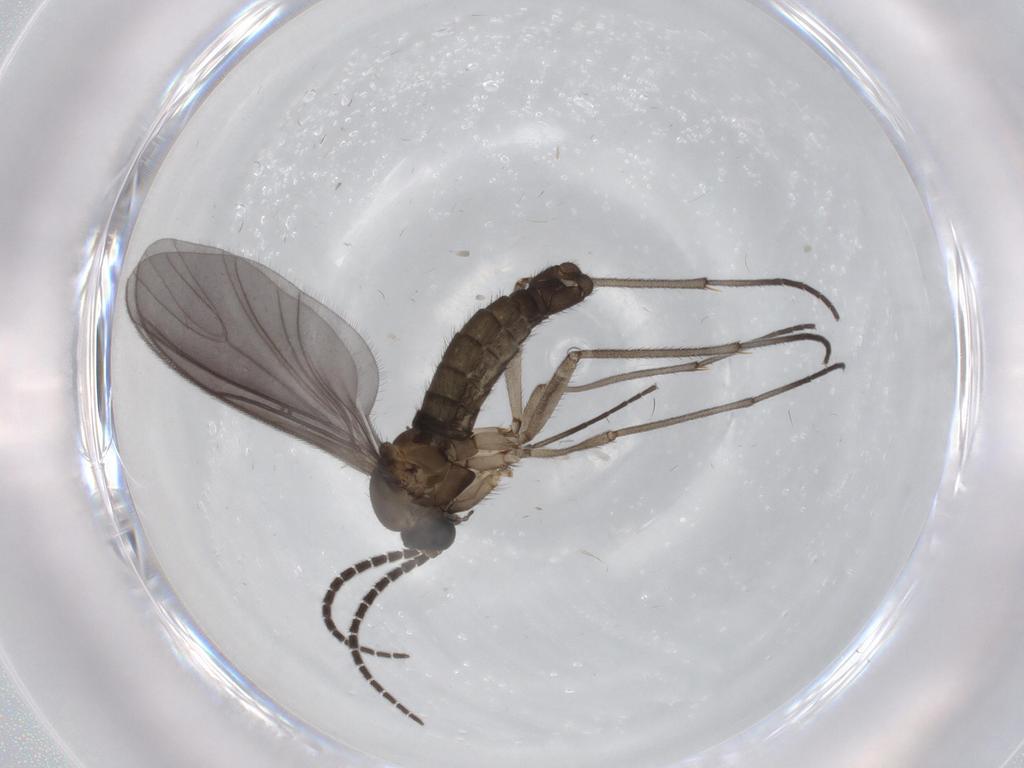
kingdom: Animalia
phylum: Arthropoda
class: Insecta
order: Diptera
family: Sciaridae
